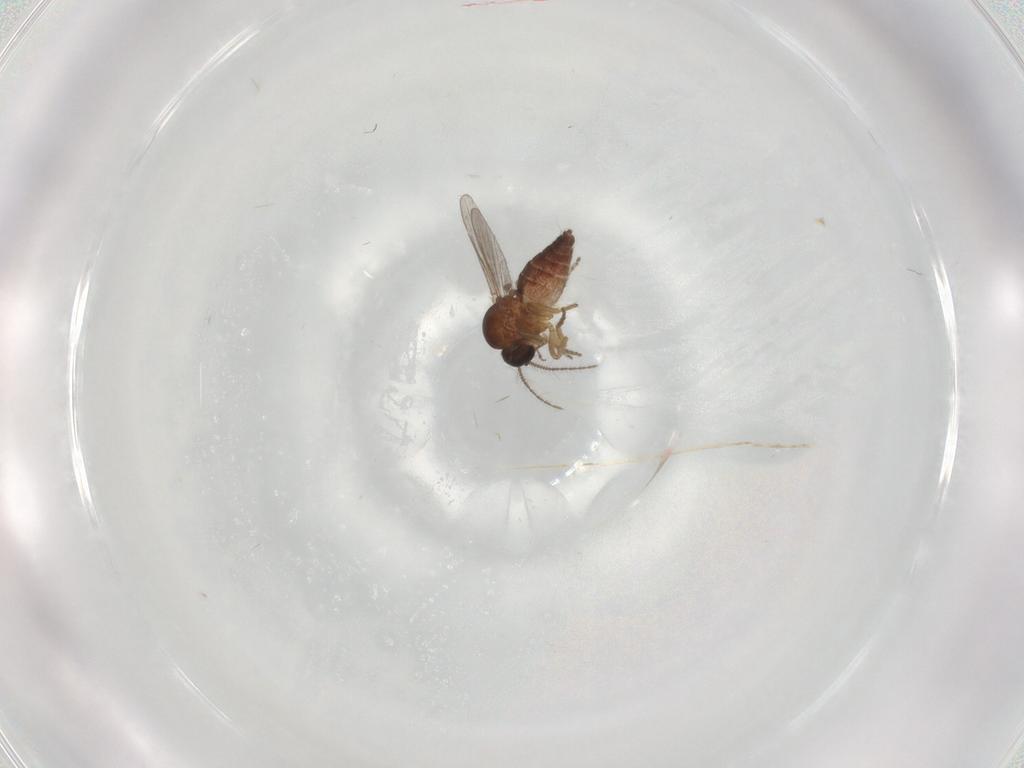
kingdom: Animalia
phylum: Arthropoda
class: Insecta
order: Diptera
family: Ceratopogonidae
